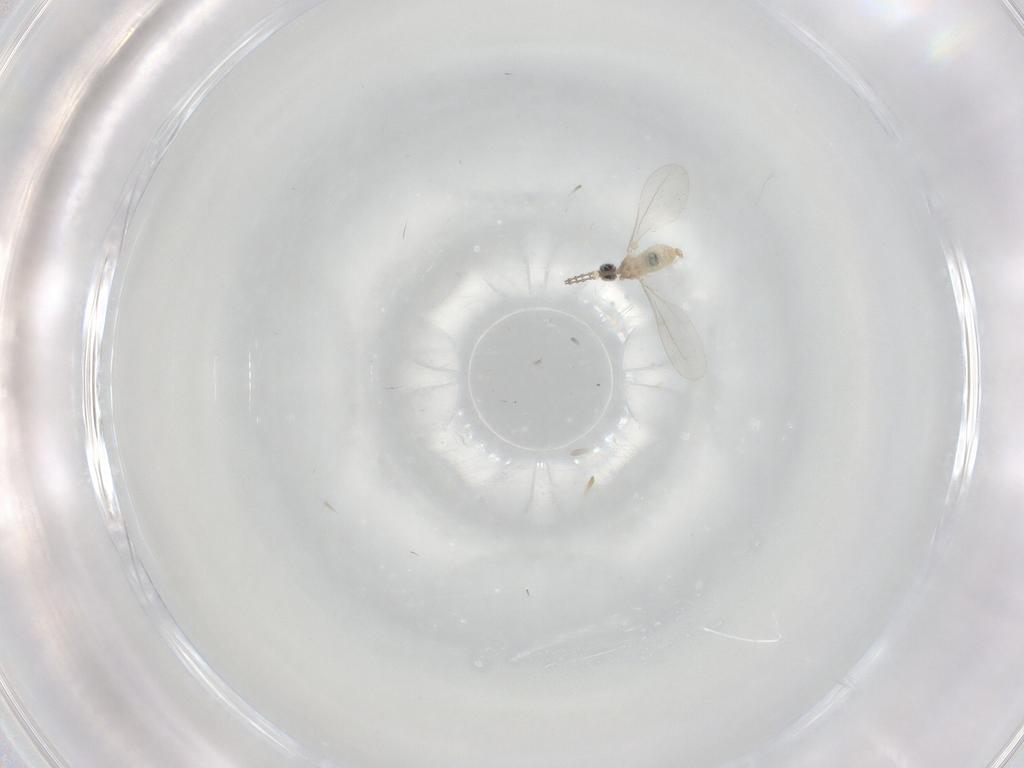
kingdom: Animalia
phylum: Arthropoda
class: Insecta
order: Diptera
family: Cecidomyiidae
